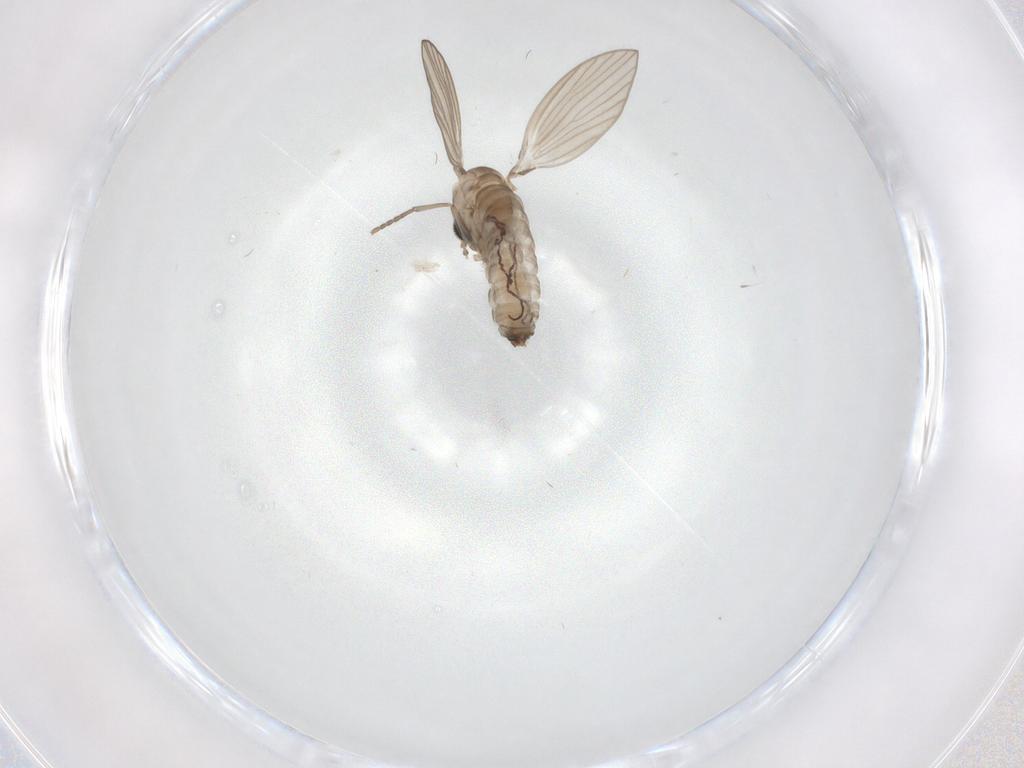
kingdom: Animalia
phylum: Arthropoda
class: Insecta
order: Diptera
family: Psychodidae
